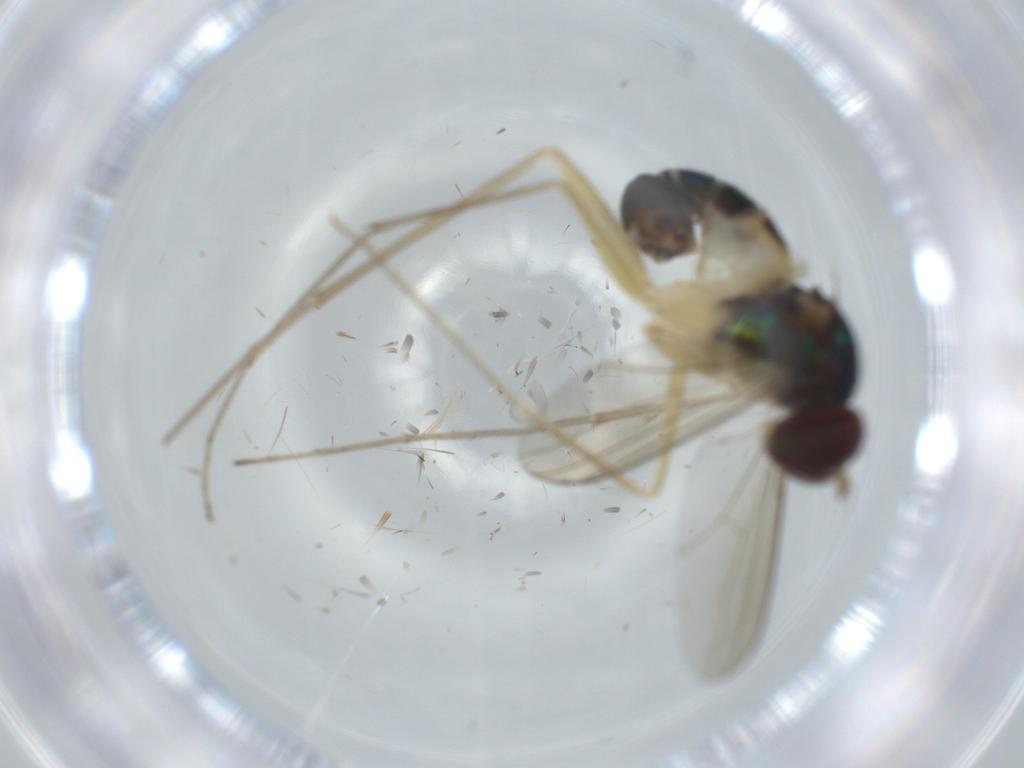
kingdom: Animalia
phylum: Arthropoda
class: Insecta
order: Diptera
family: Dolichopodidae
